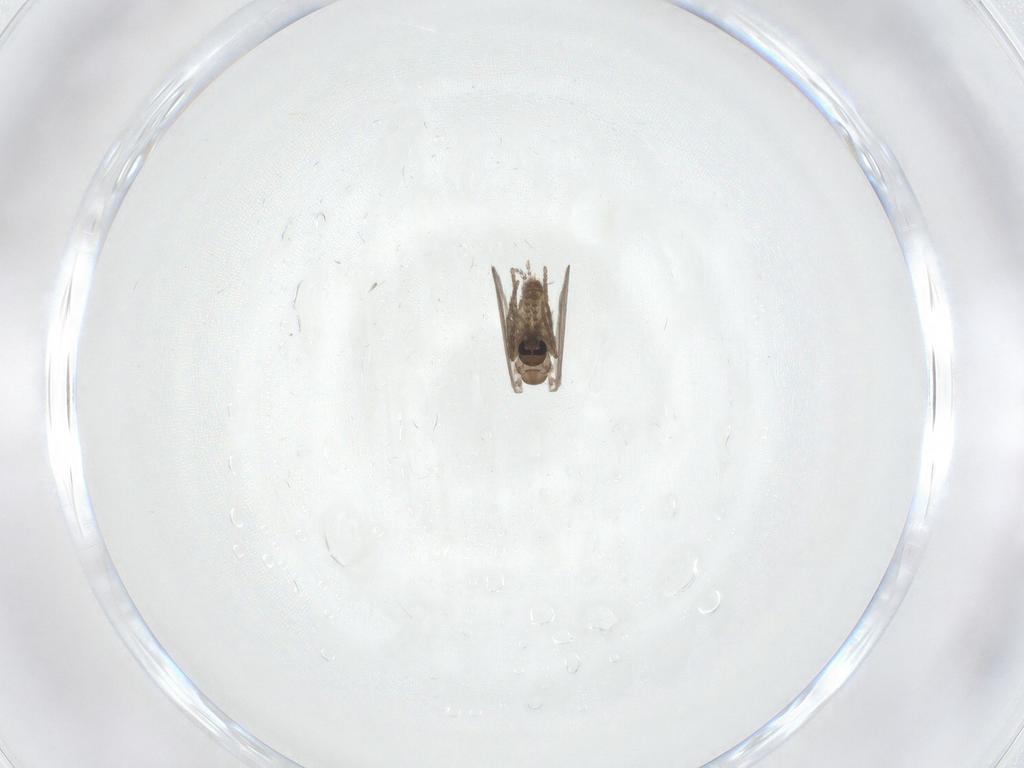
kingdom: Animalia
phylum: Arthropoda
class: Insecta
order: Diptera
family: Psychodidae
